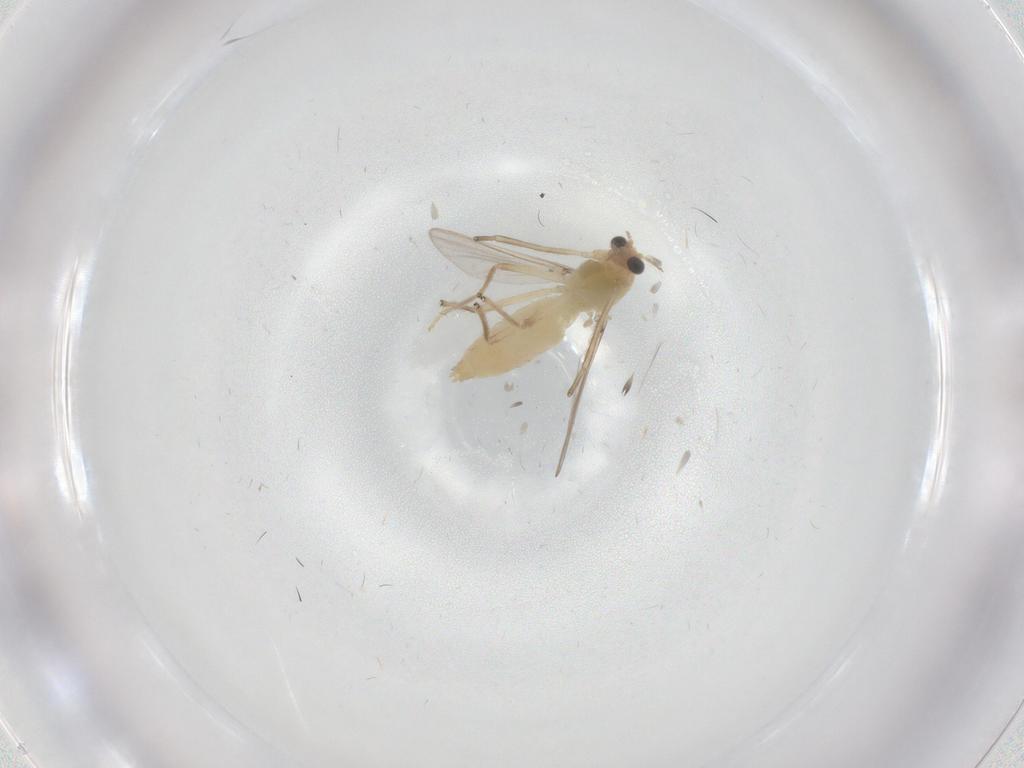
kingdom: Animalia
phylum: Arthropoda
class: Insecta
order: Diptera
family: Chironomidae
